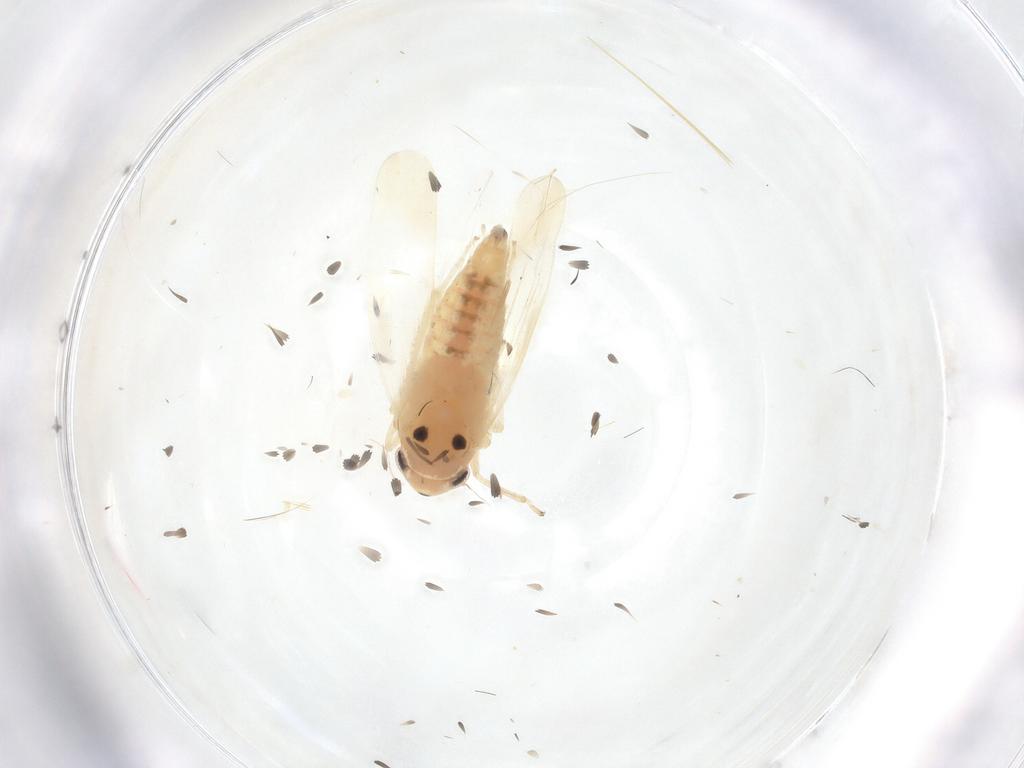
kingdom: Animalia
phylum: Arthropoda
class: Insecta
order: Hemiptera
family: Cicadellidae
